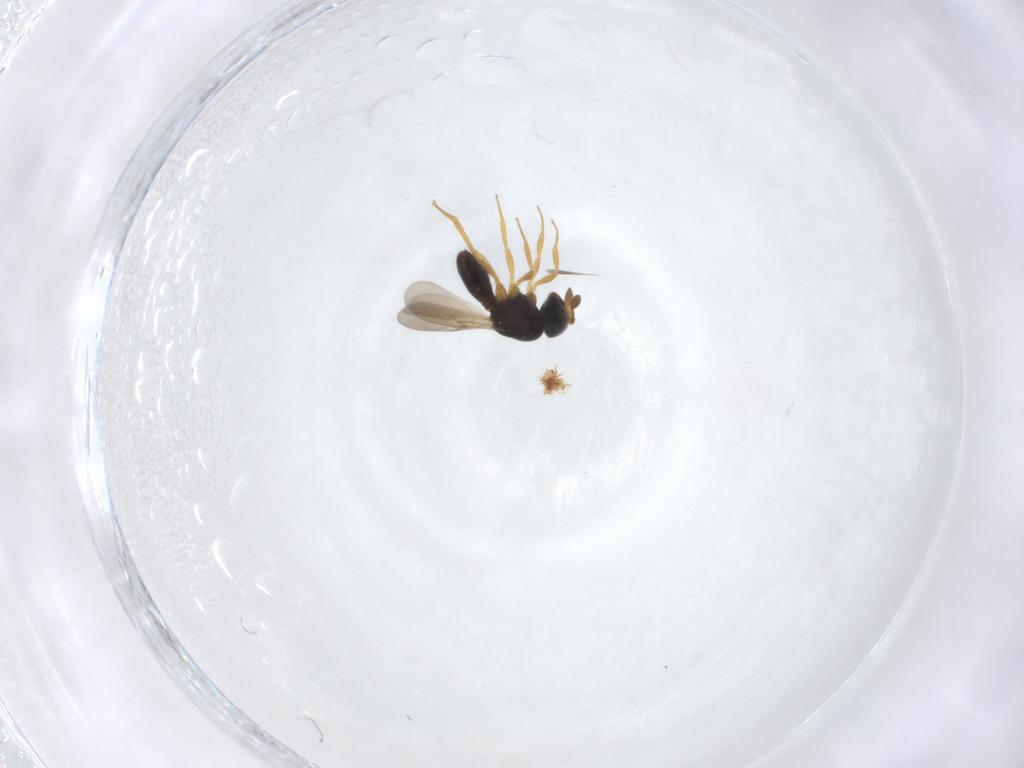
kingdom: Animalia
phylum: Arthropoda
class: Insecta
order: Hymenoptera
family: Scelionidae
